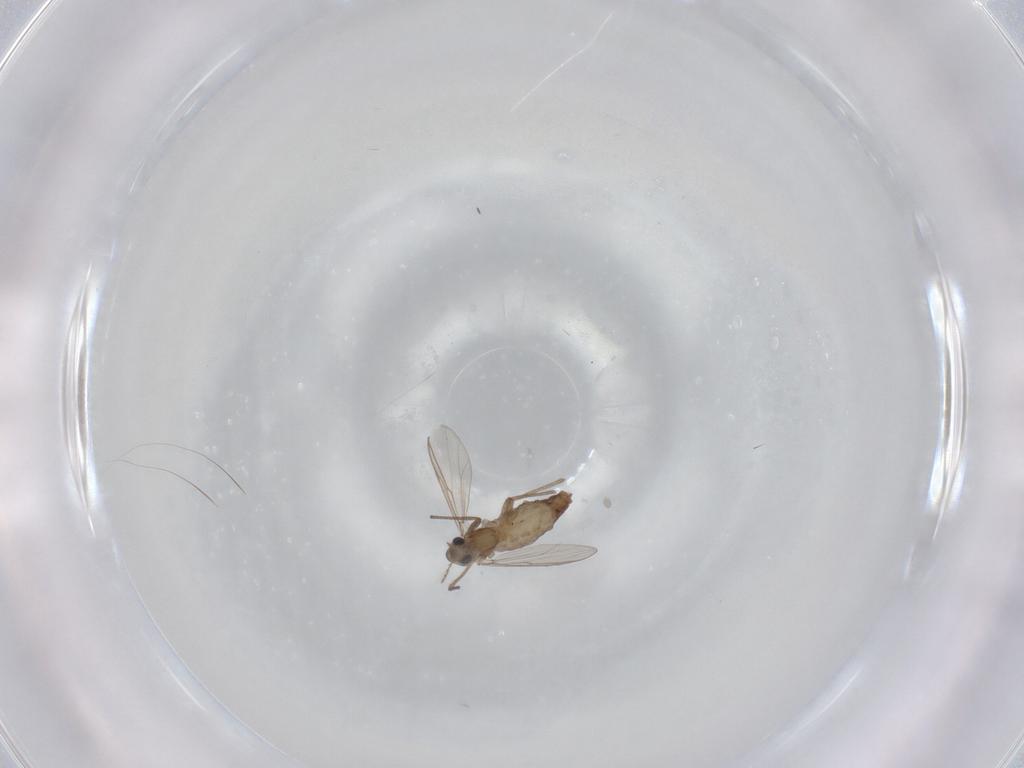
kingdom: Animalia
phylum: Arthropoda
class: Insecta
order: Diptera
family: Chironomidae
